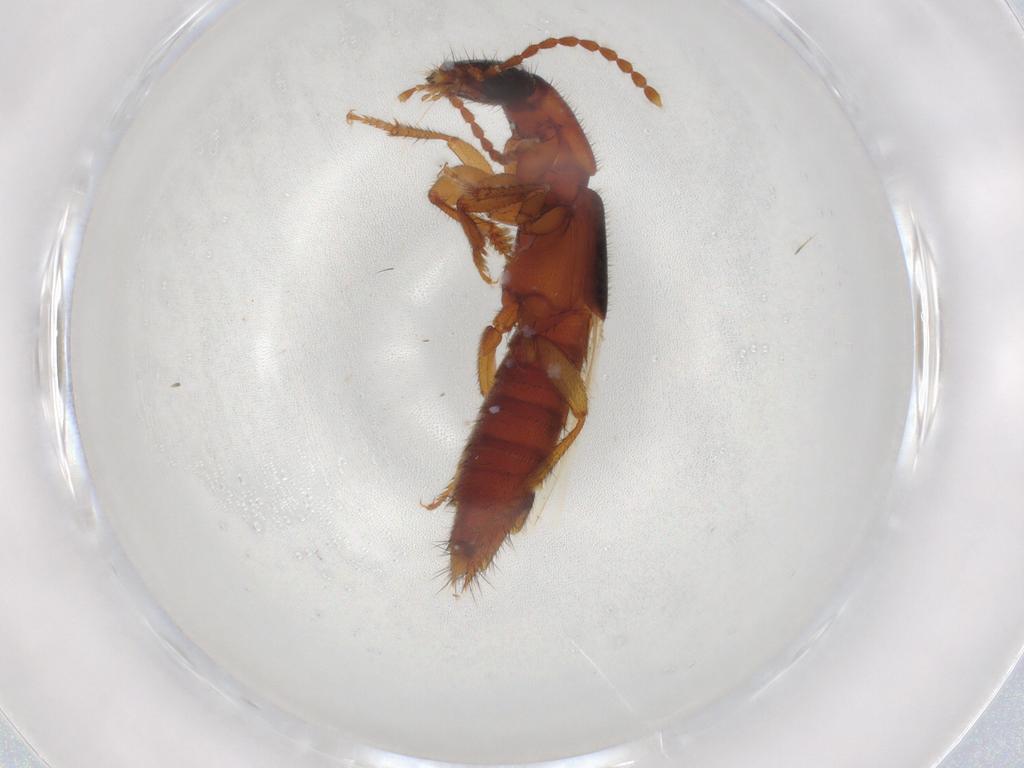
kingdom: Animalia
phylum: Arthropoda
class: Insecta
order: Coleoptera
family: Staphylinidae
